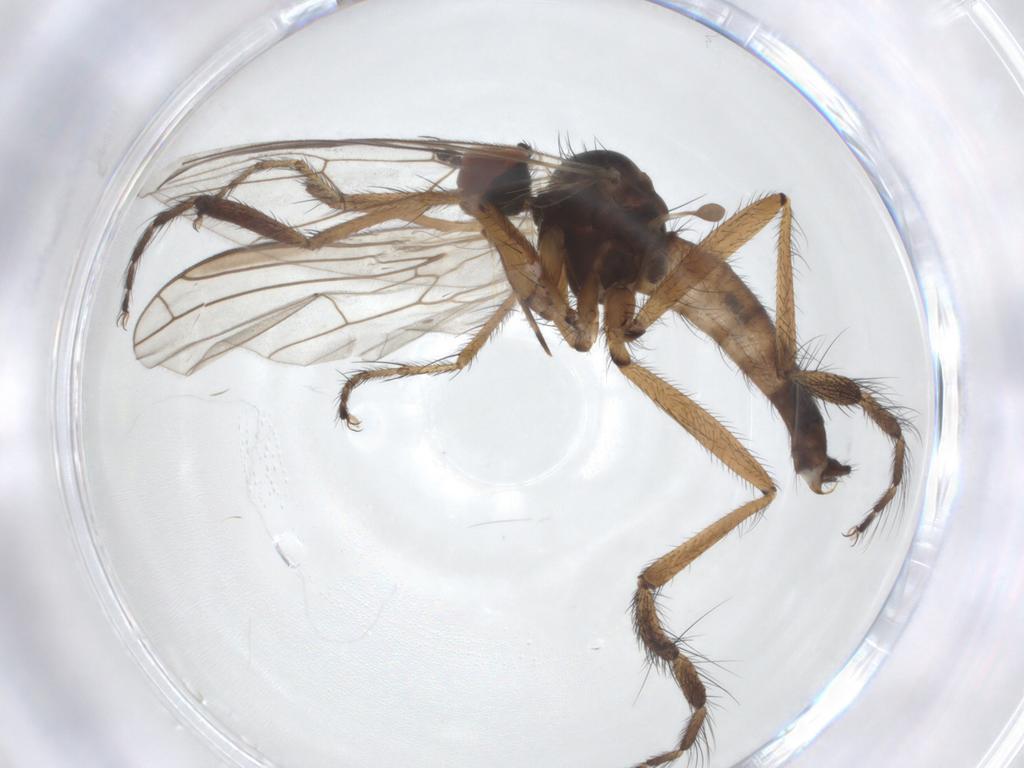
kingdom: Animalia
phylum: Arthropoda
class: Insecta
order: Diptera
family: Empididae
